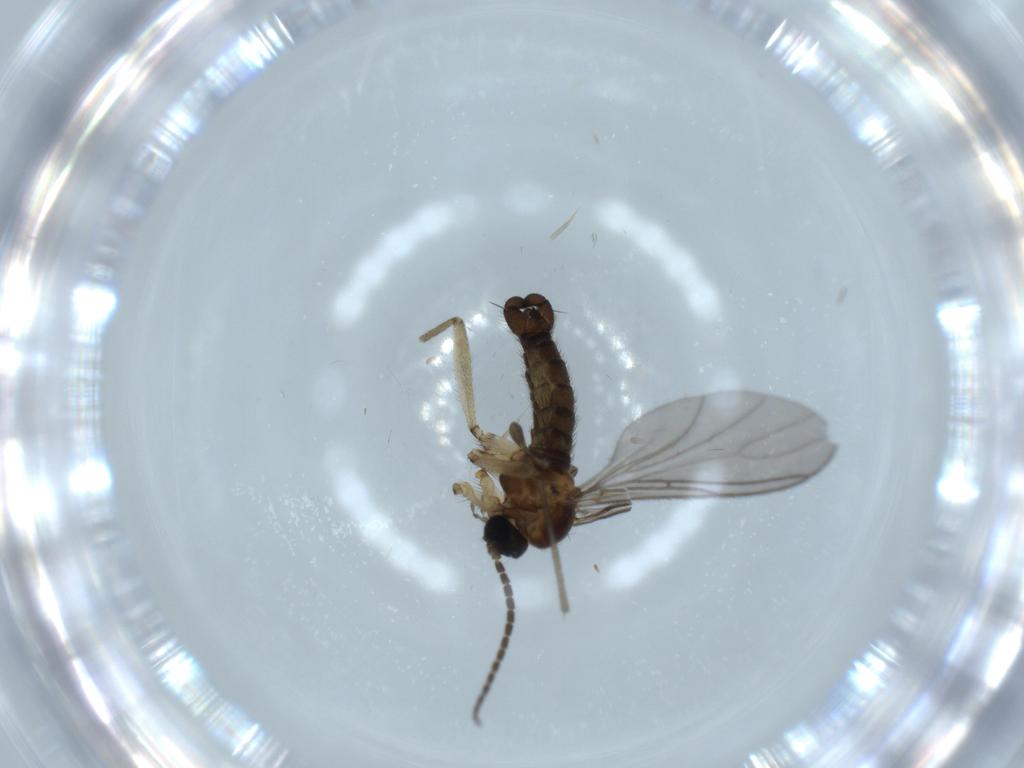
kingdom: Animalia
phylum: Arthropoda
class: Insecta
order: Diptera
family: Sciaridae
